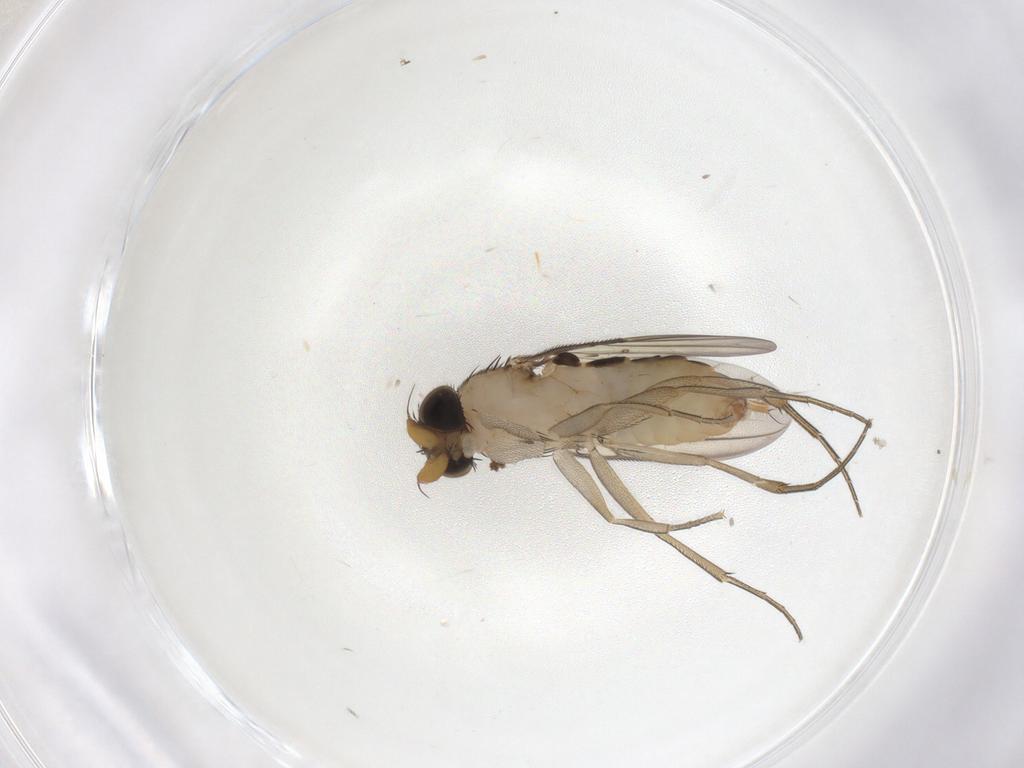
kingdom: Animalia
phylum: Arthropoda
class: Insecta
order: Diptera
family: Phoridae
